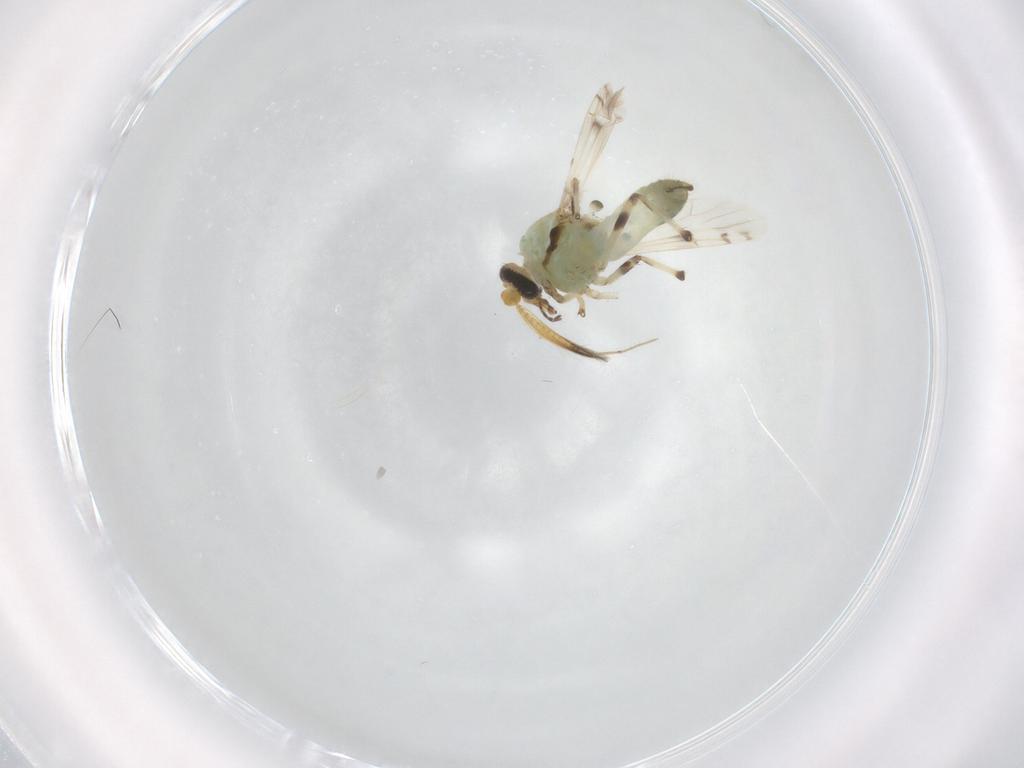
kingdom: Animalia
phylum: Arthropoda
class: Insecta
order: Diptera
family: Ceratopogonidae
